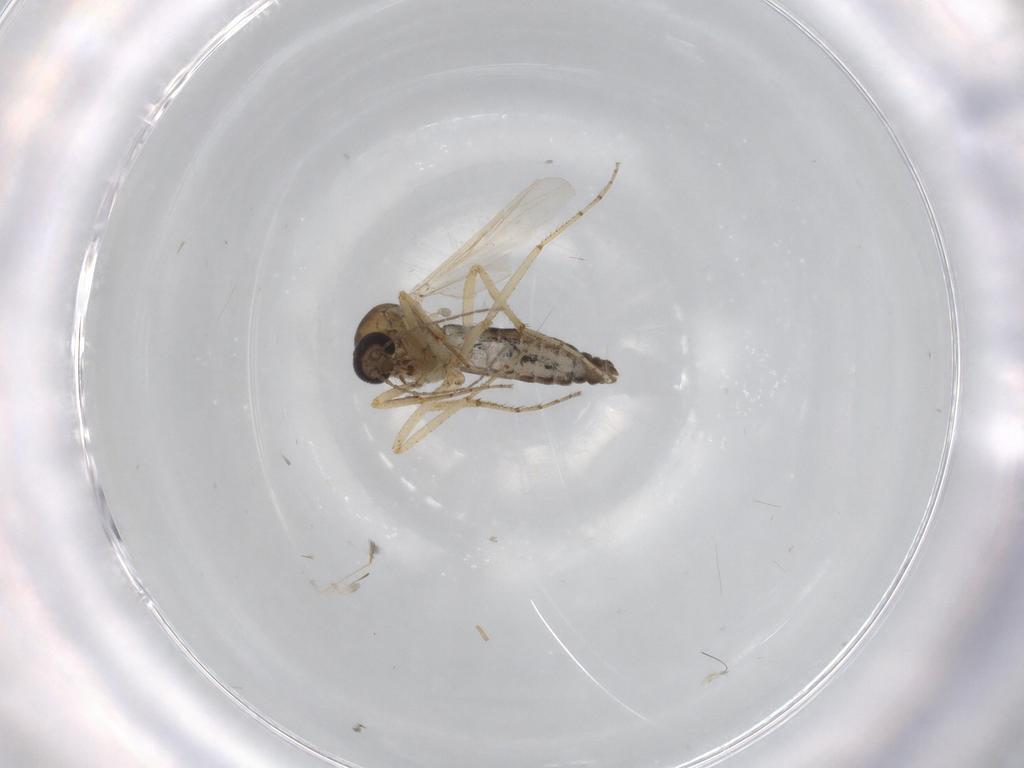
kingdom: Animalia
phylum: Arthropoda
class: Insecta
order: Diptera
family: Ceratopogonidae
